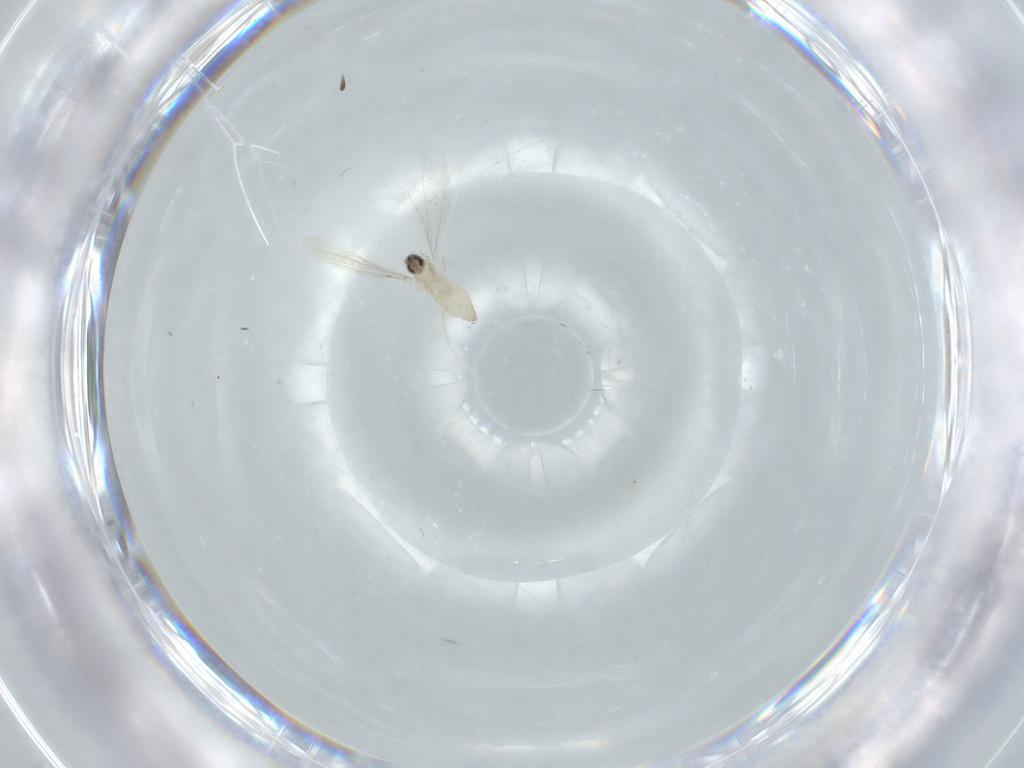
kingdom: Animalia
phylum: Arthropoda
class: Insecta
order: Diptera
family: Cecidomyiidae
